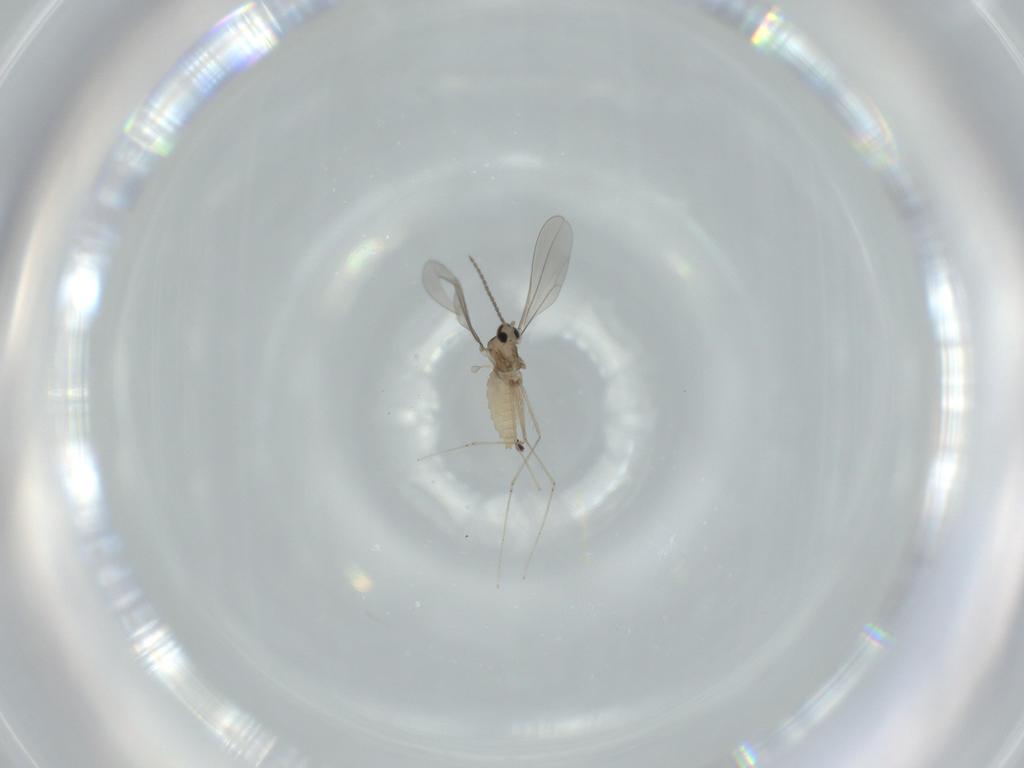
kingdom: Animalia
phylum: Arthropoda
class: Insecta
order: Diptera
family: Cecidomyiidae
